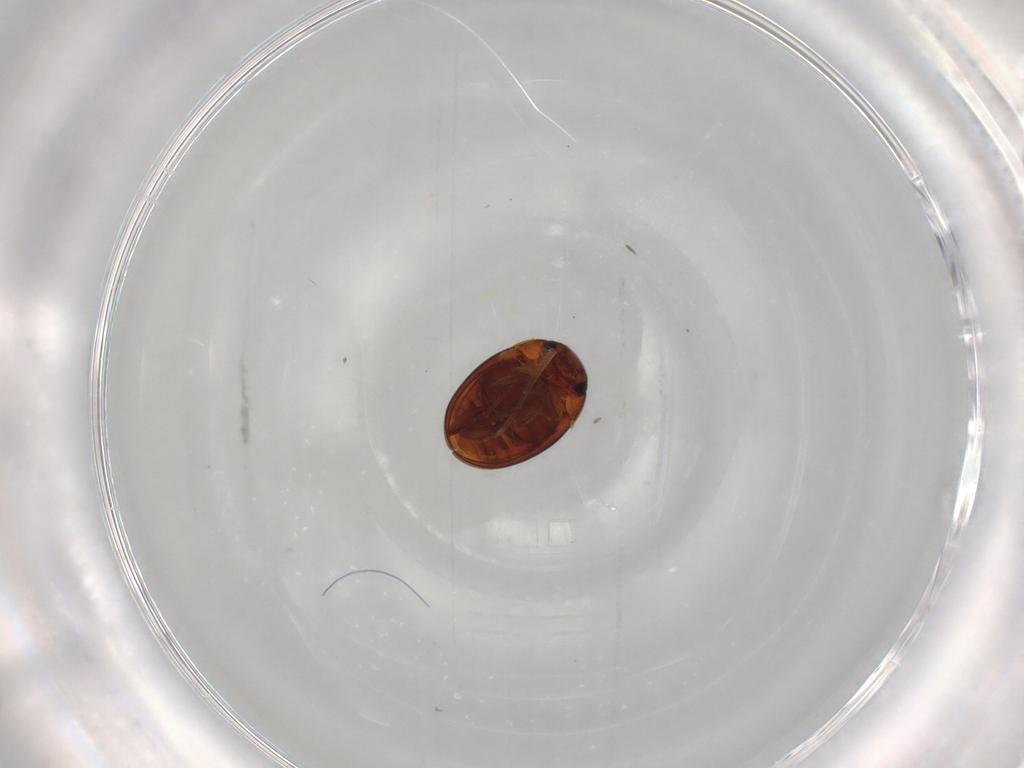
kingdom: Animalia
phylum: Arthropoda
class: Insecta
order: Coleoptera
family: Leiodidae
